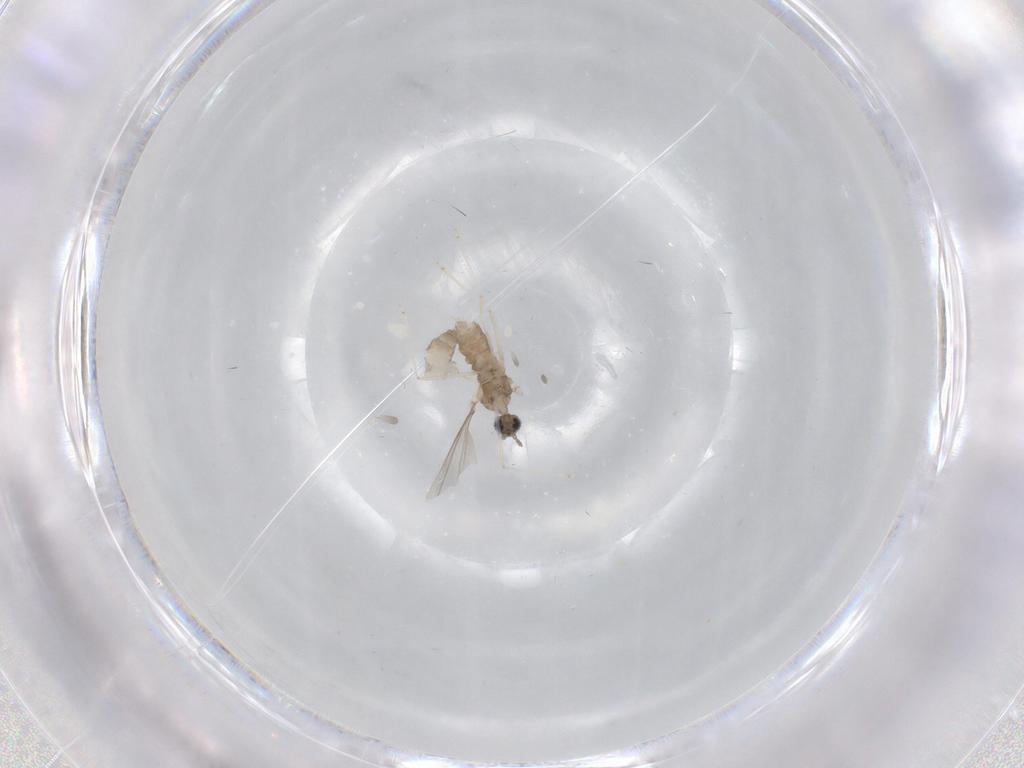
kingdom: Animalia
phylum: Arthropoda
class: Insecta
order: Diptera
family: Cecidomyiidae
